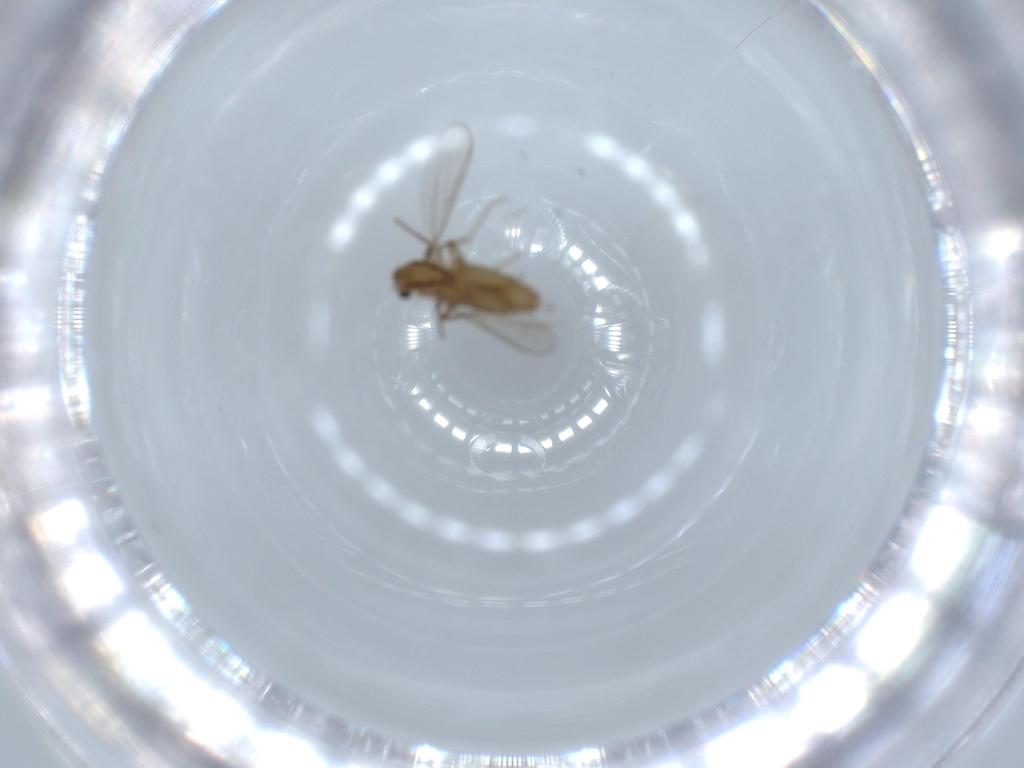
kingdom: Animalia
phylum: Arthropoda
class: Insecta
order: Diptera
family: Chironomidae
